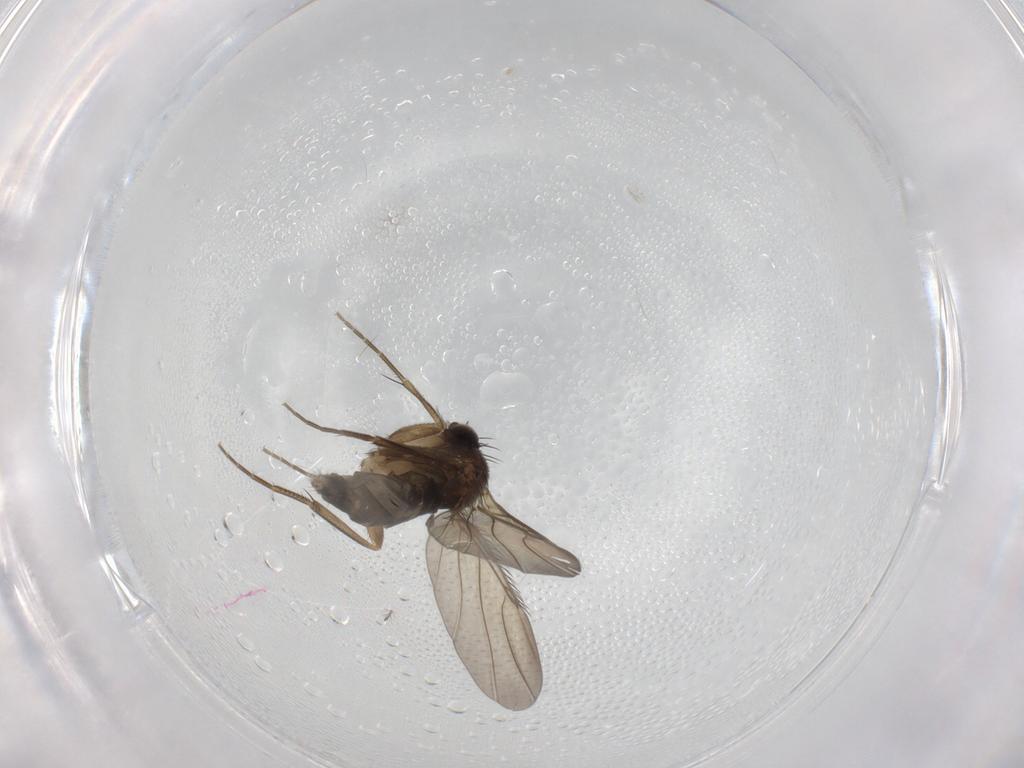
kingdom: Animalia
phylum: Arthropoda
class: Insecta
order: Diptera
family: Phoridae
